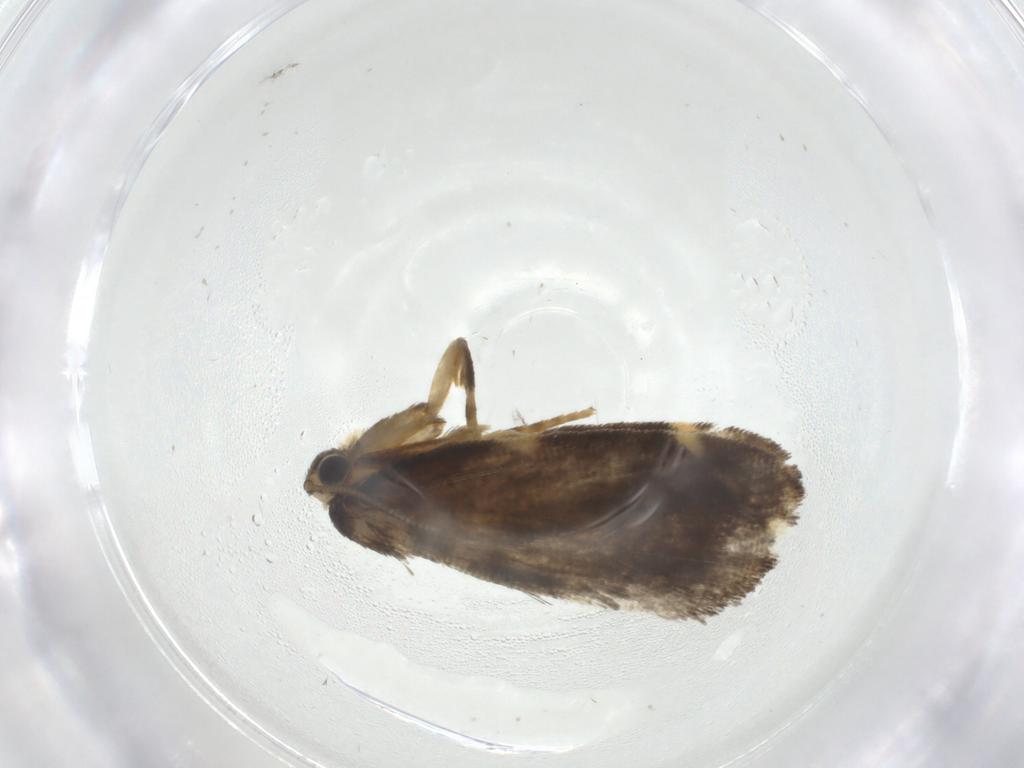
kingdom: Animalia
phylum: Arthropoda
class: Insecta
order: Lepidoptera
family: Psychidae
